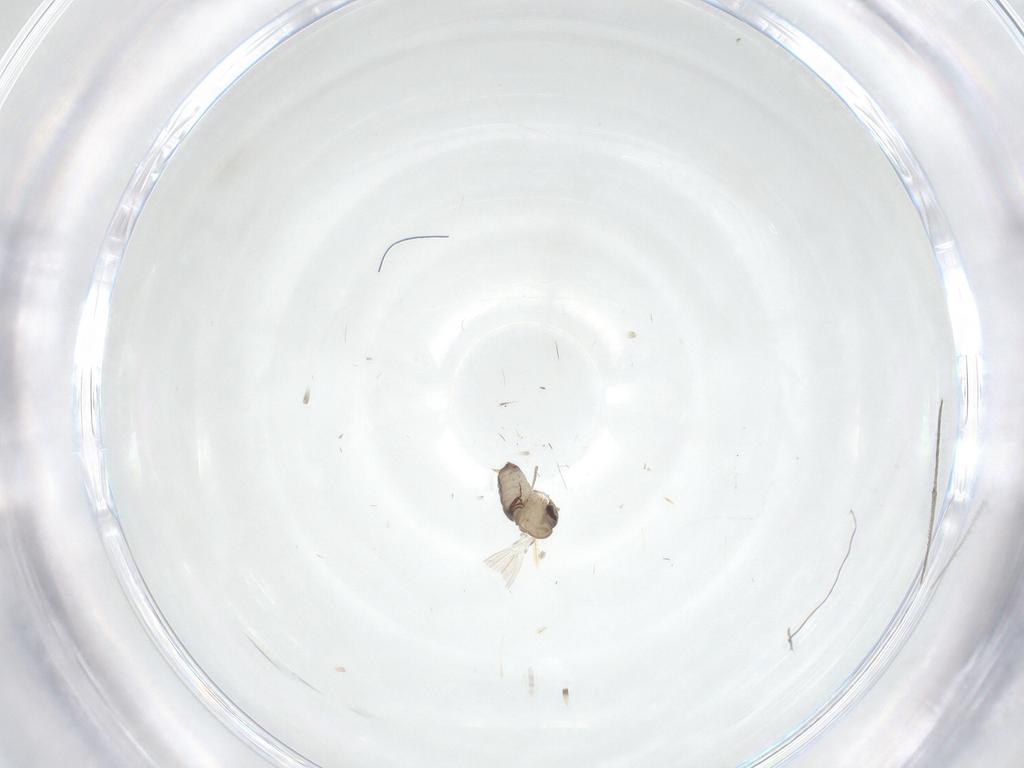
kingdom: Animalia
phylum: Arthropoda
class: Insecta
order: Diptera
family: Psychodidae
